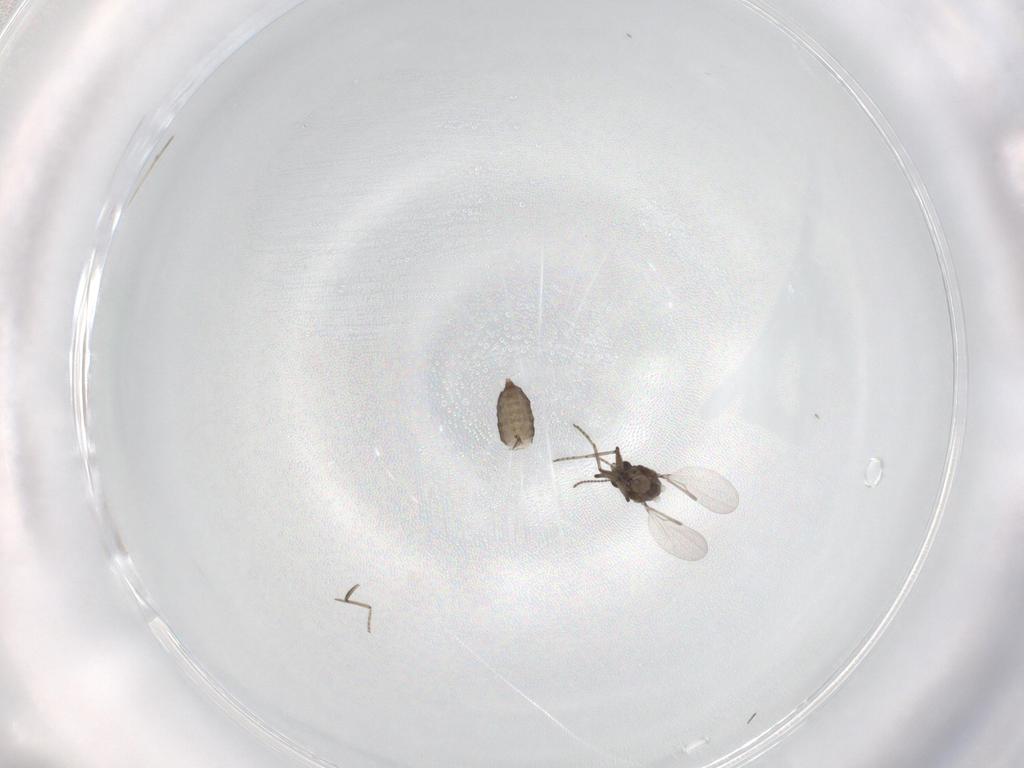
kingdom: Animalia
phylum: Arthropoda
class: Insecta
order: Diptera
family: Ceratopogonidae
